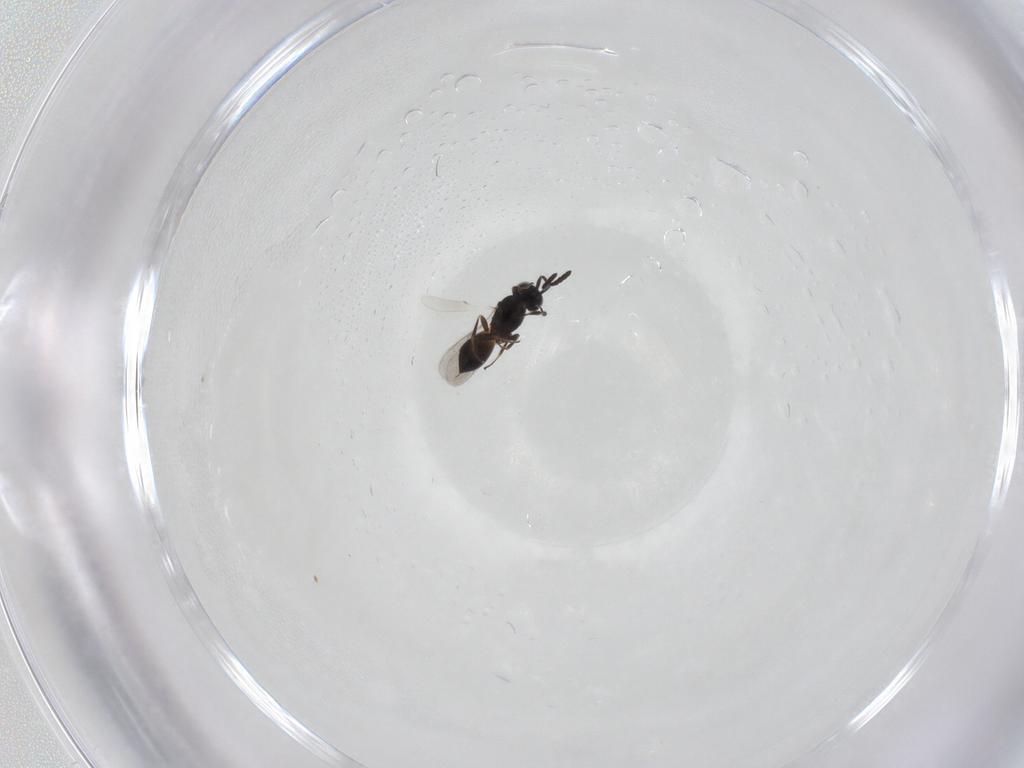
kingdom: Animalia
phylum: Arthropoda
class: Insecta
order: Hymenoptera
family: Scelionidae
